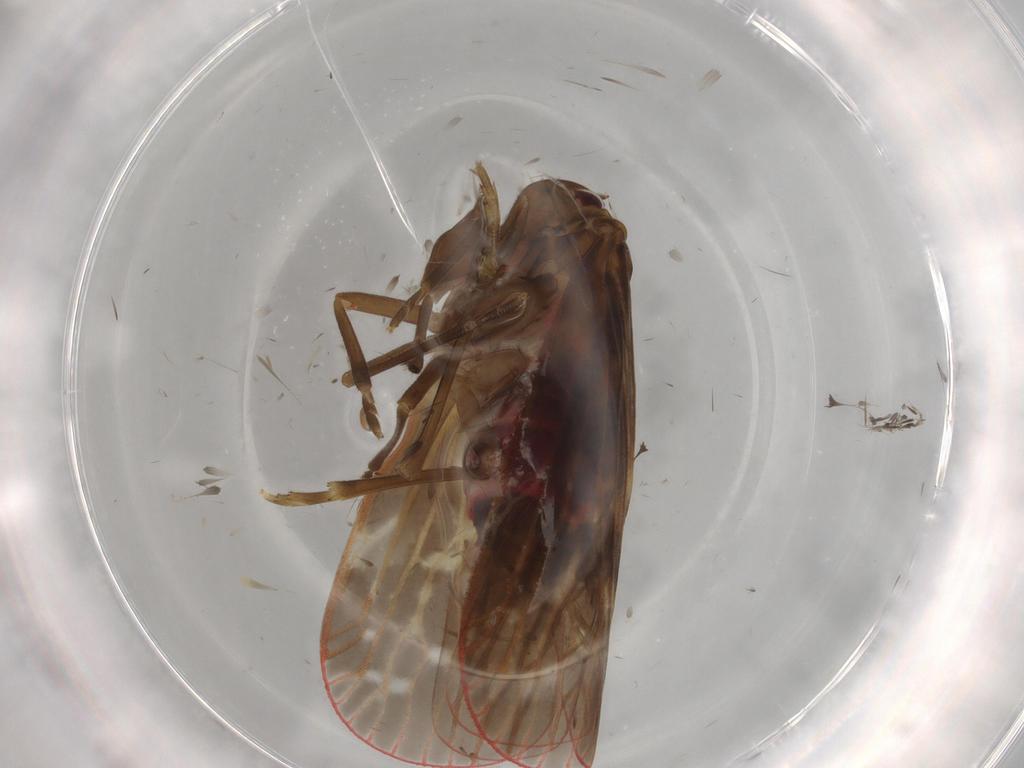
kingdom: Animalia
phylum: Arthropoda
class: Insecta
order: Hemiptera
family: Achilidae
